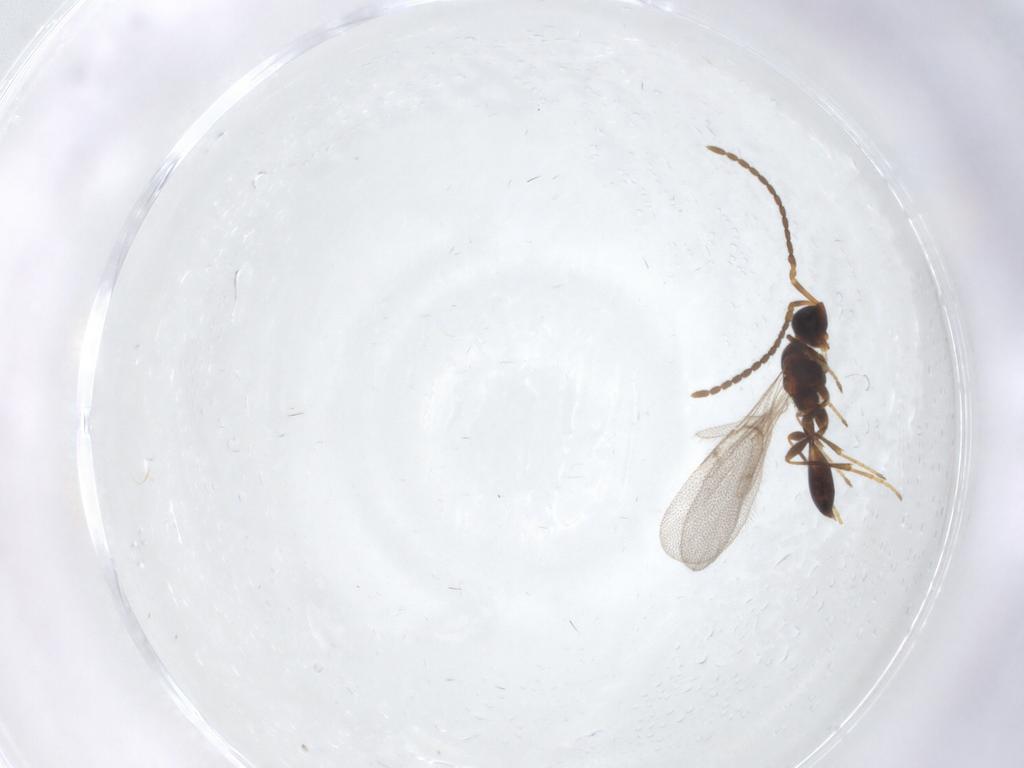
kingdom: Animalia
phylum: Arthropoda
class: Insecta
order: Hymenoptera
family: Diapriidae
